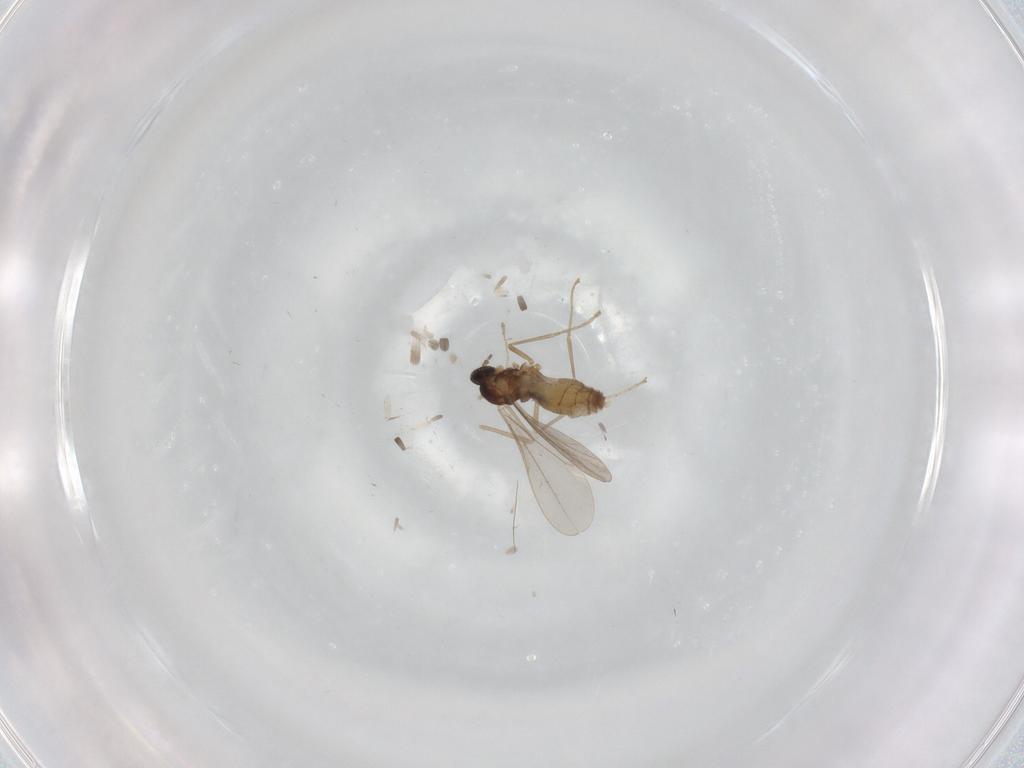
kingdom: Animalia
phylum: Arthropoda
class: Insecta
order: Diptera
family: Cecidomyiidae
